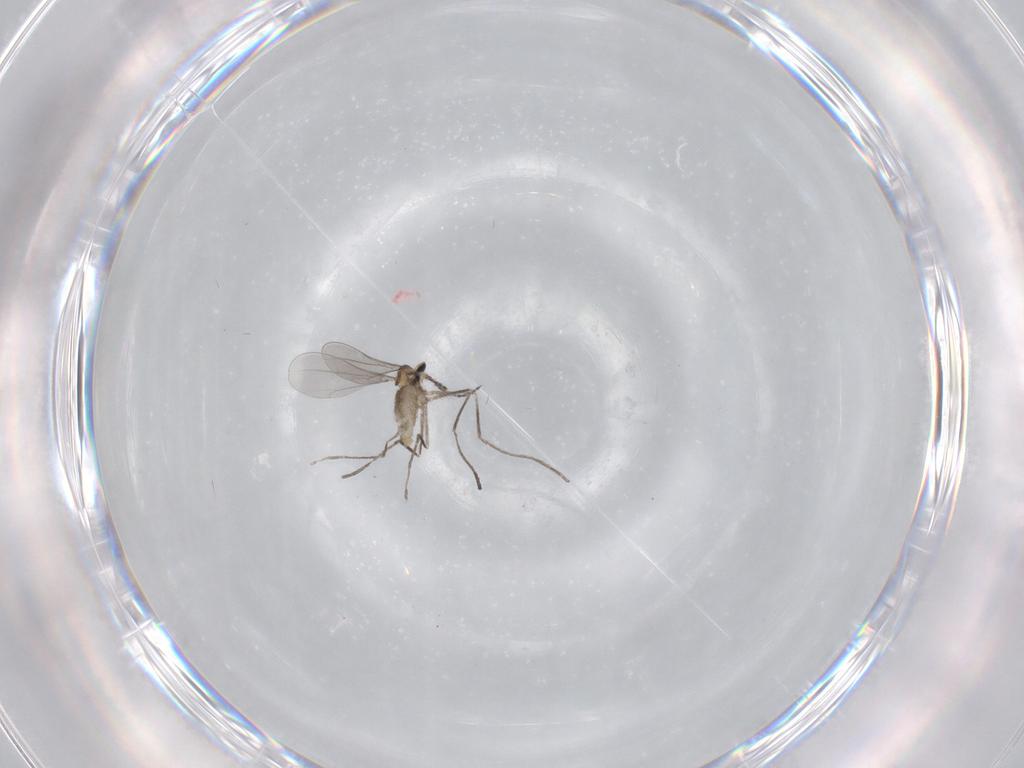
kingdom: Animalia
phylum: Arthropoda
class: Insecta
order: Diptera
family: Cecidomyiidae
